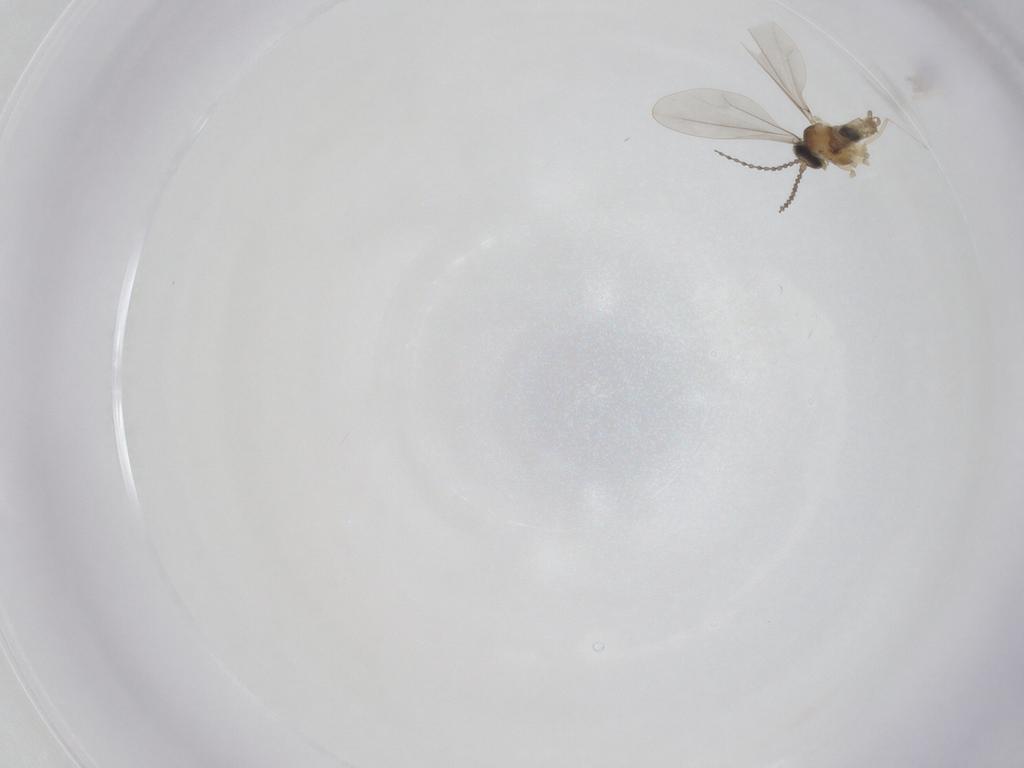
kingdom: Animalia
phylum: Arthropoda
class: Insecta
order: Diptera
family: Cecidomyiidae
